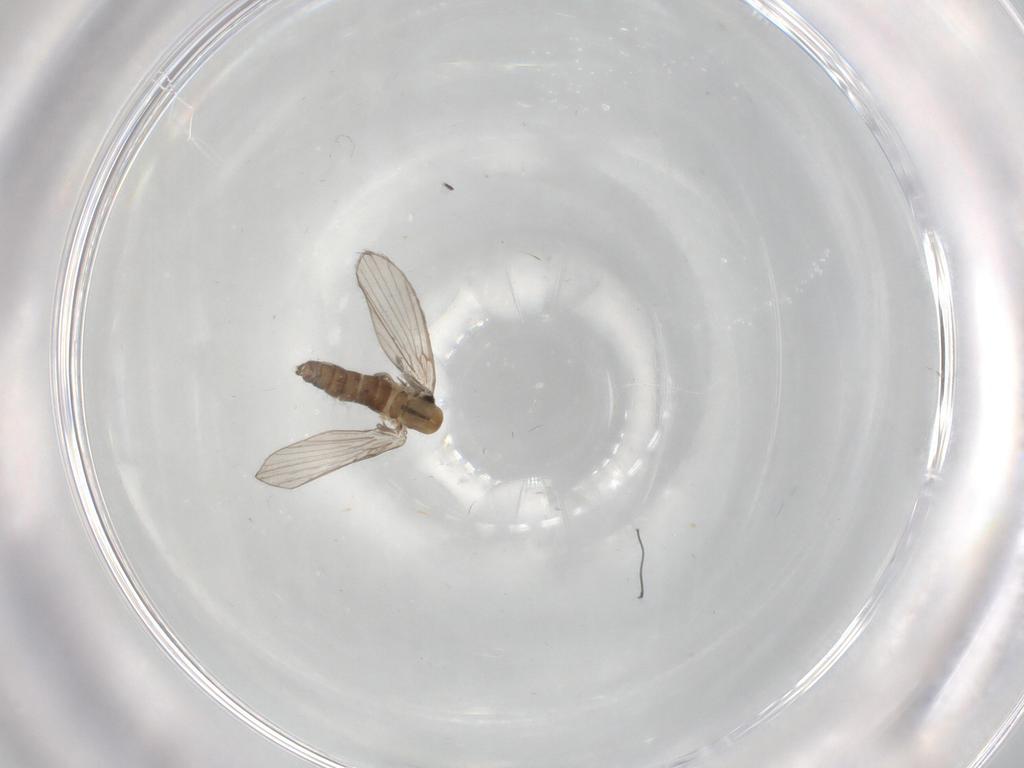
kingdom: Animalia
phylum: Arthropoda
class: Insecta
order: Diptera
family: Psychodidae
